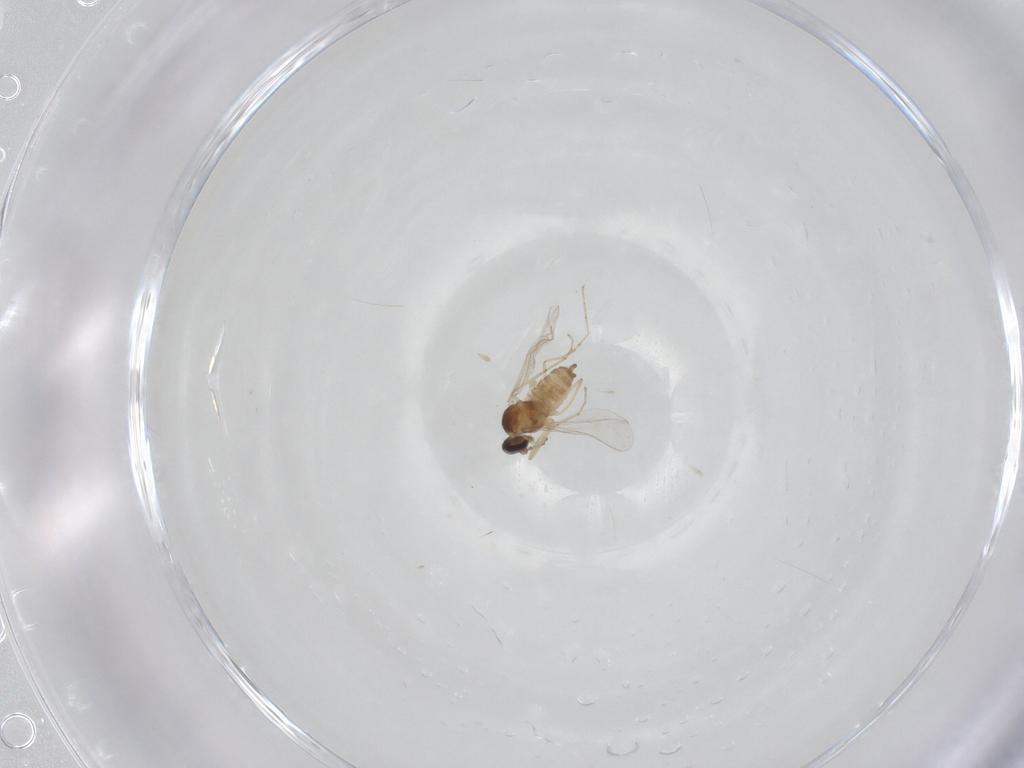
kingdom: Animalia
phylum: Arthropoda
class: Insecta
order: Diptera
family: Cecidomyiidae
